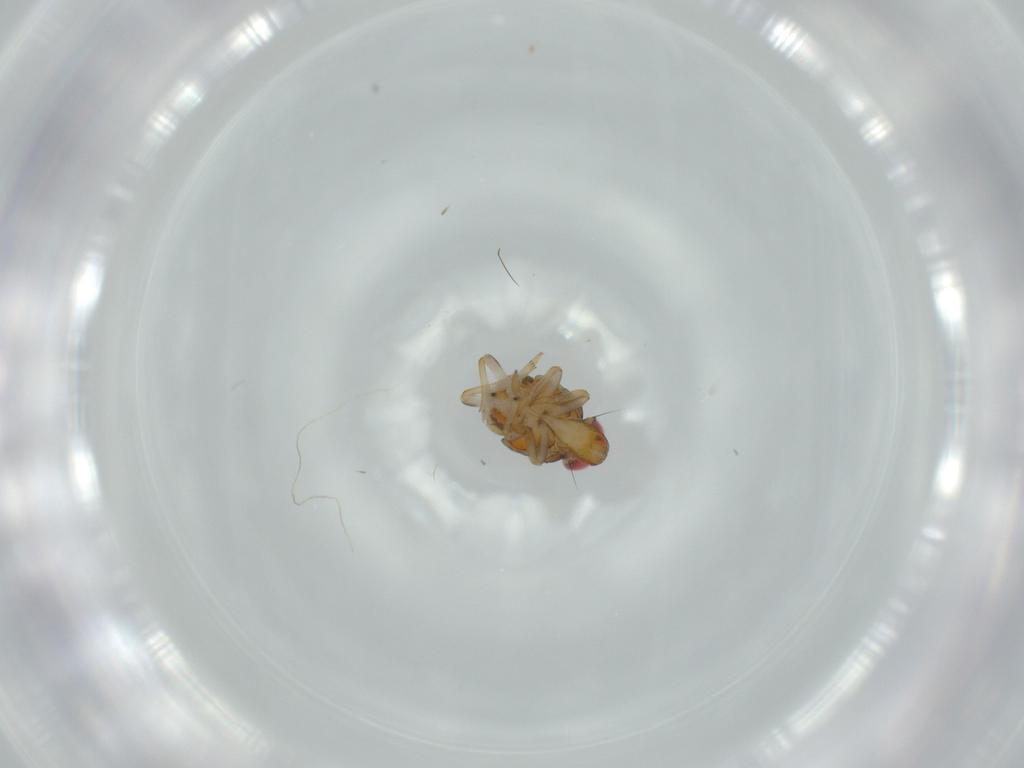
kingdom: Animalia
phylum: Arthropoda
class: Insecta
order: Hemiptera
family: Issidae
